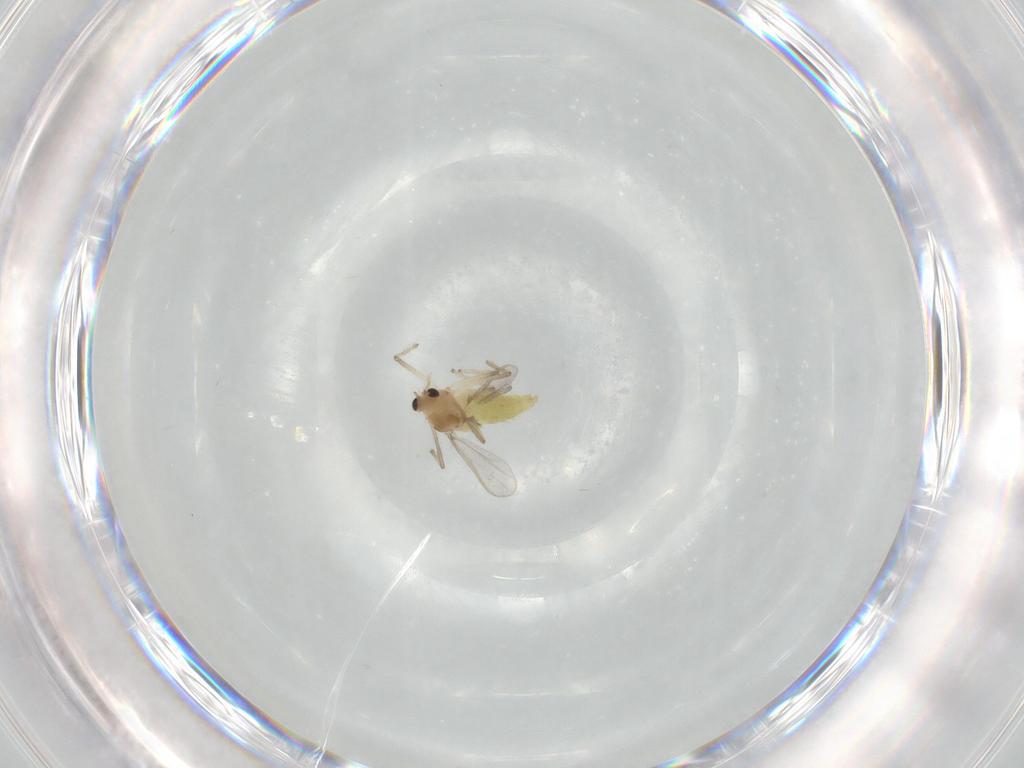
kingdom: Animalia
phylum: Arthropoda
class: Insecta
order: Diptera
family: Chironomidae
